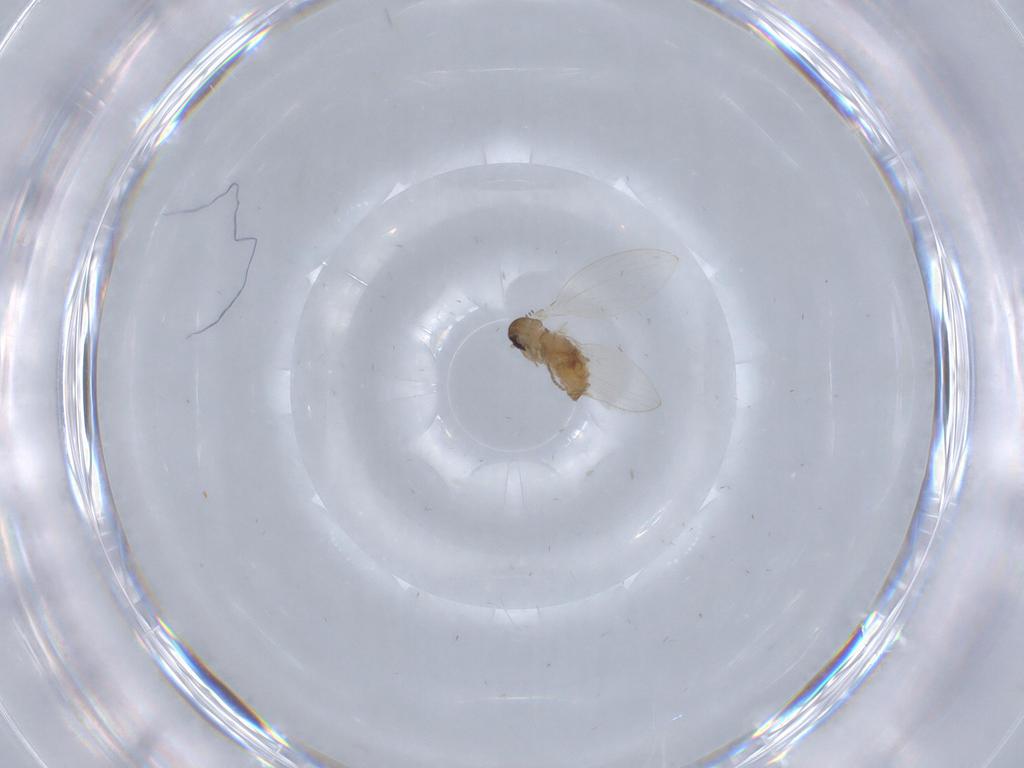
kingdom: Animalia
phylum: Arthropoda
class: Insecta
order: Diptera
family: Psychodidae
